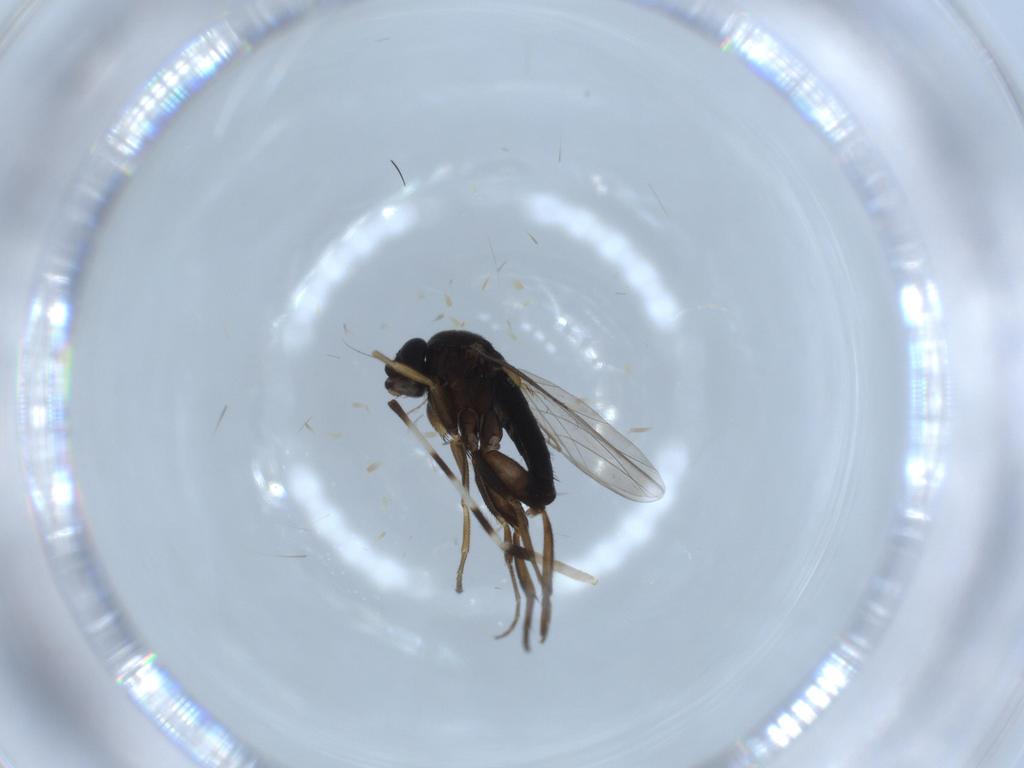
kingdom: Animalia
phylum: Arthropoda
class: Insecta
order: Diptera
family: Phoridae
